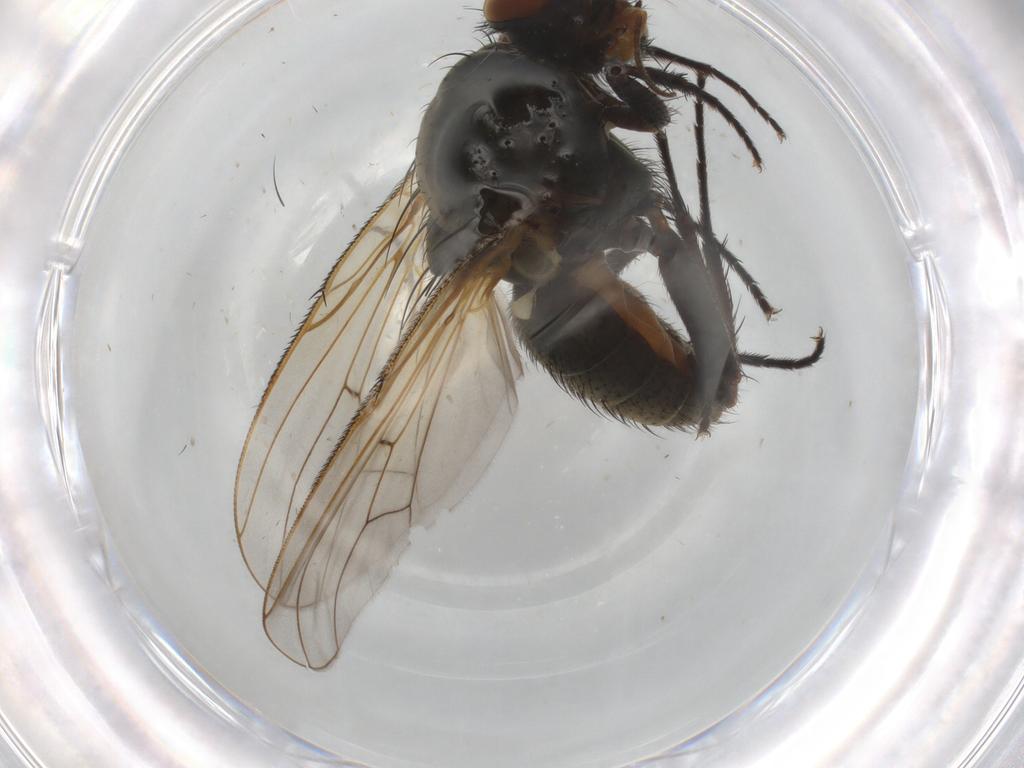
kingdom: Animalia
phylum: Arthropoda
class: Insecta
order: Diptera
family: Anthomyiidae
